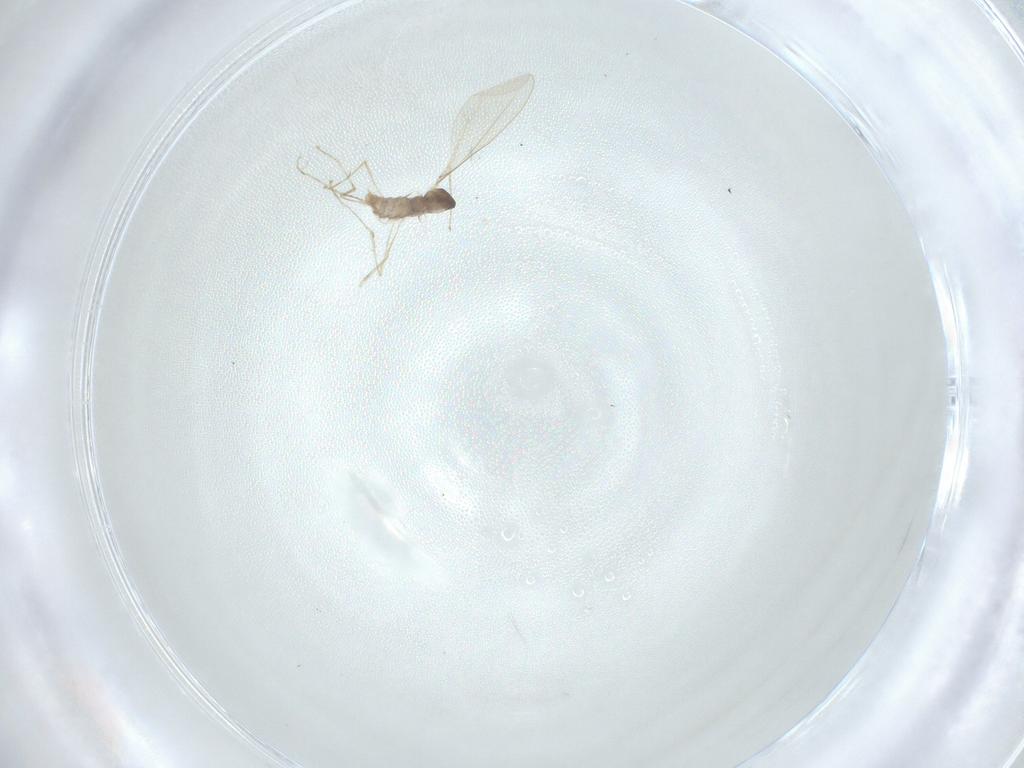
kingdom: Animalia
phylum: Arthropoda
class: Insecta
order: Diptera
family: Cecidomyiidae
